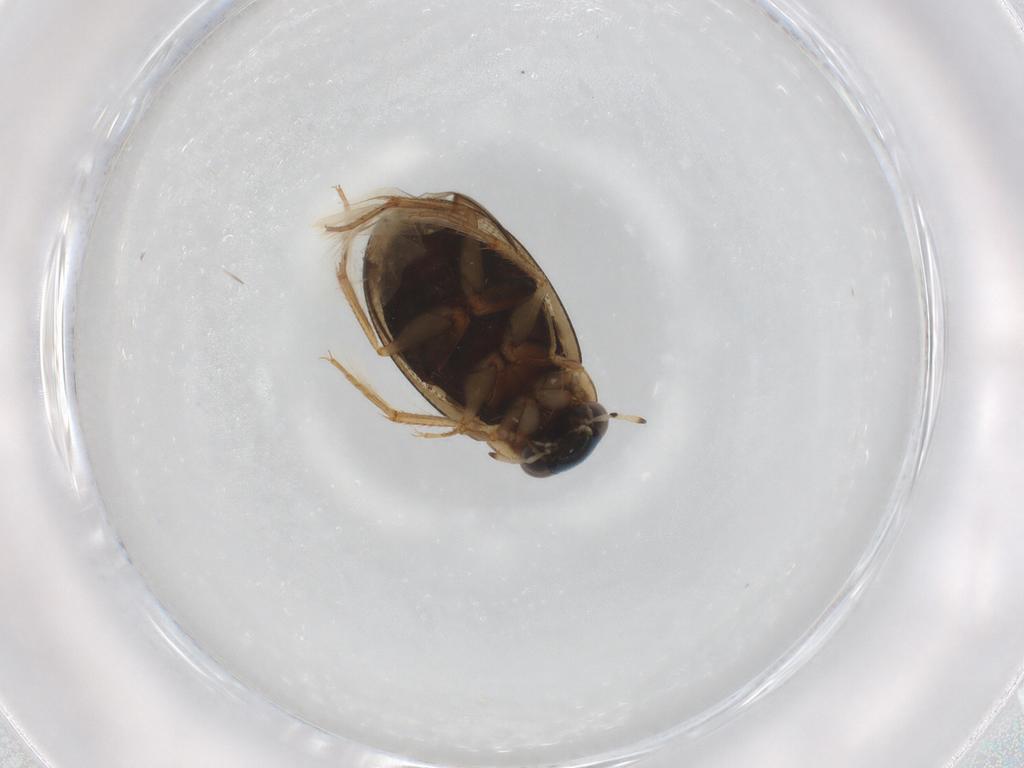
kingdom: Animalia
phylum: Arthropoda
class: Insecta
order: Coleoptera
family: Hydrophilidae
